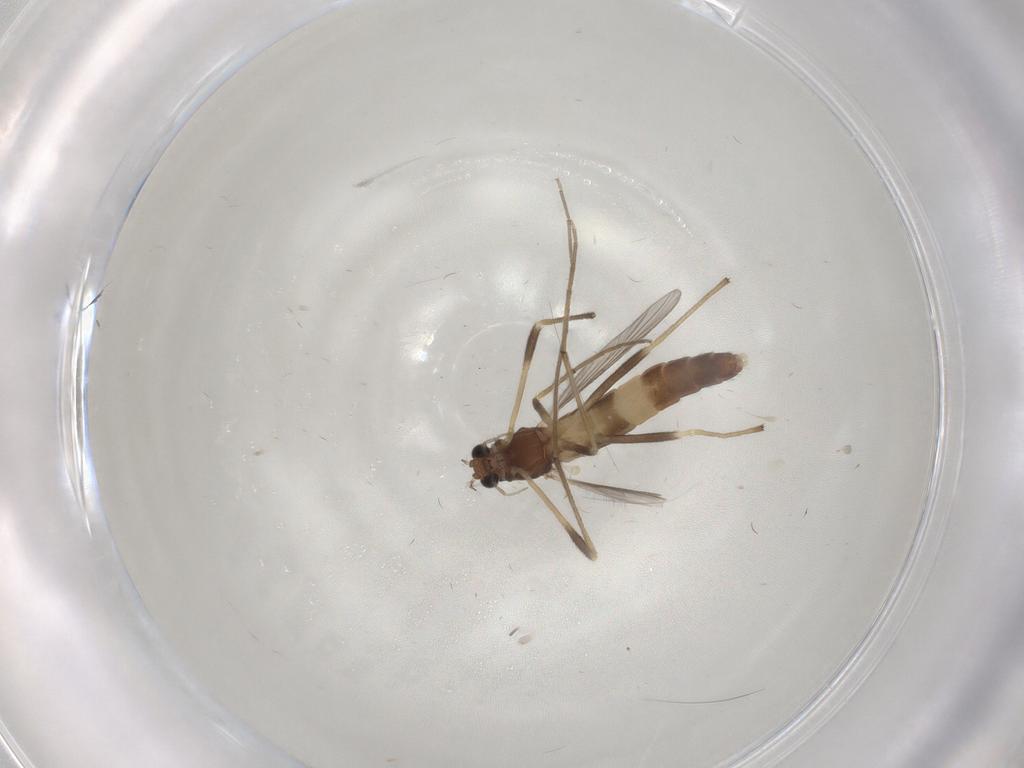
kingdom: Animalia
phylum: Arthropoda
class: Insecta
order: Diptera
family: Chironomidae
